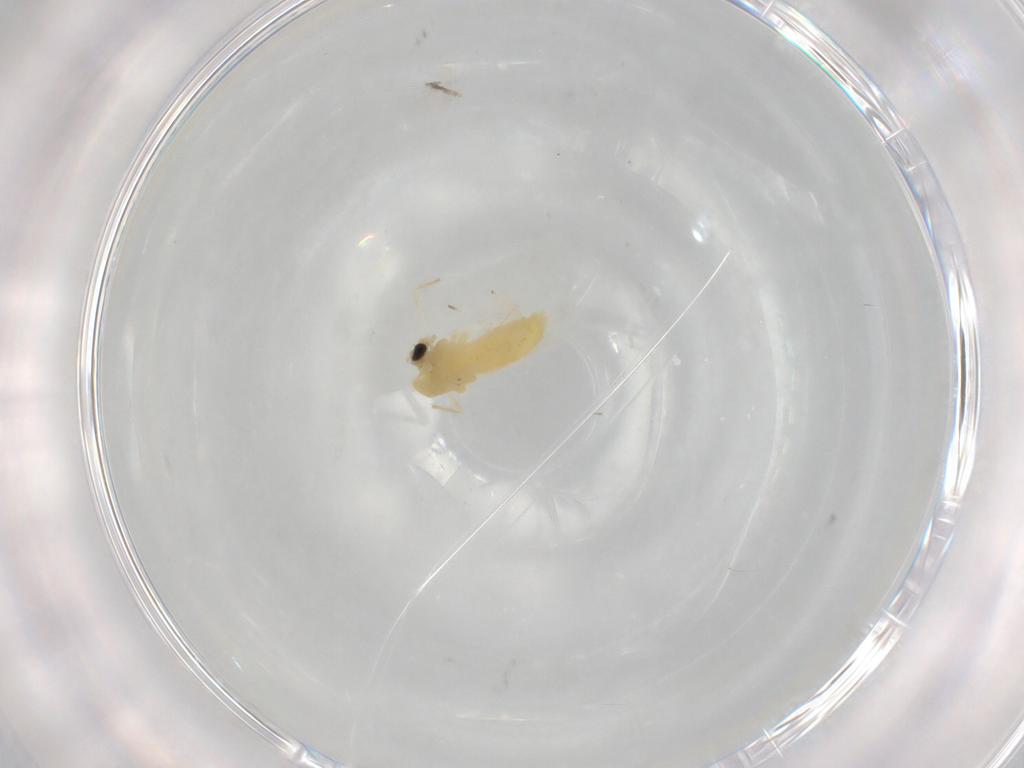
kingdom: Animalia
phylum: Arthropoda
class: Insecta
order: Diptera
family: Chironomidae
